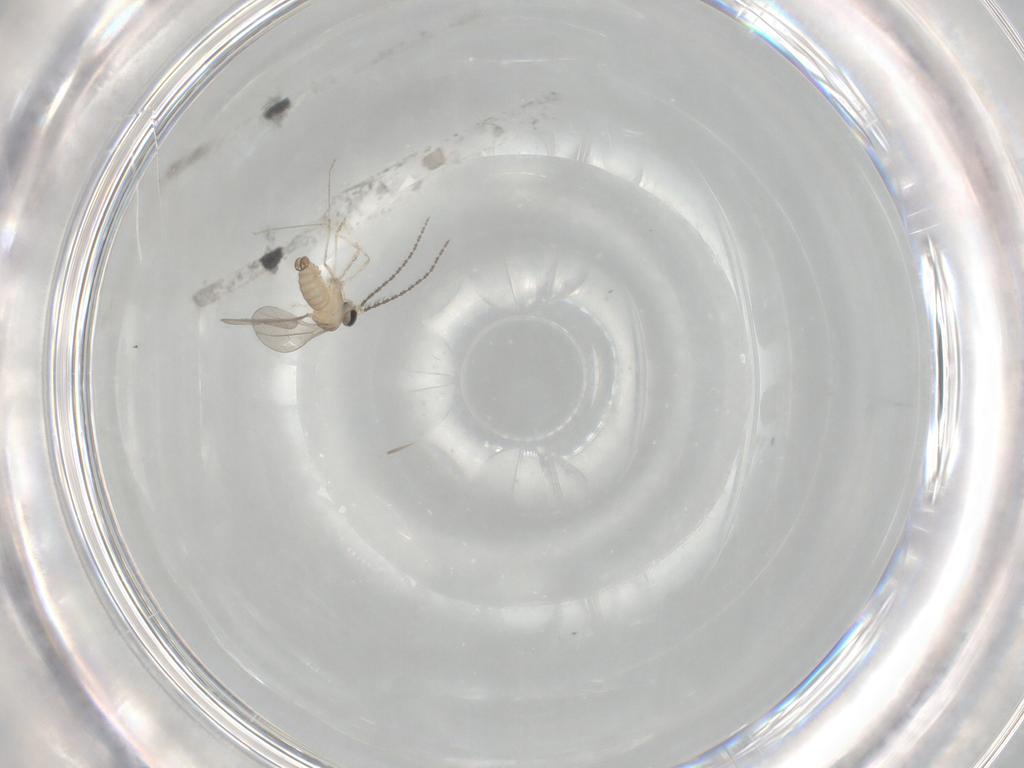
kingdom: Animalia
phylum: Arthropoda
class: Insecta
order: Diptera
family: Cecidomyiidae
